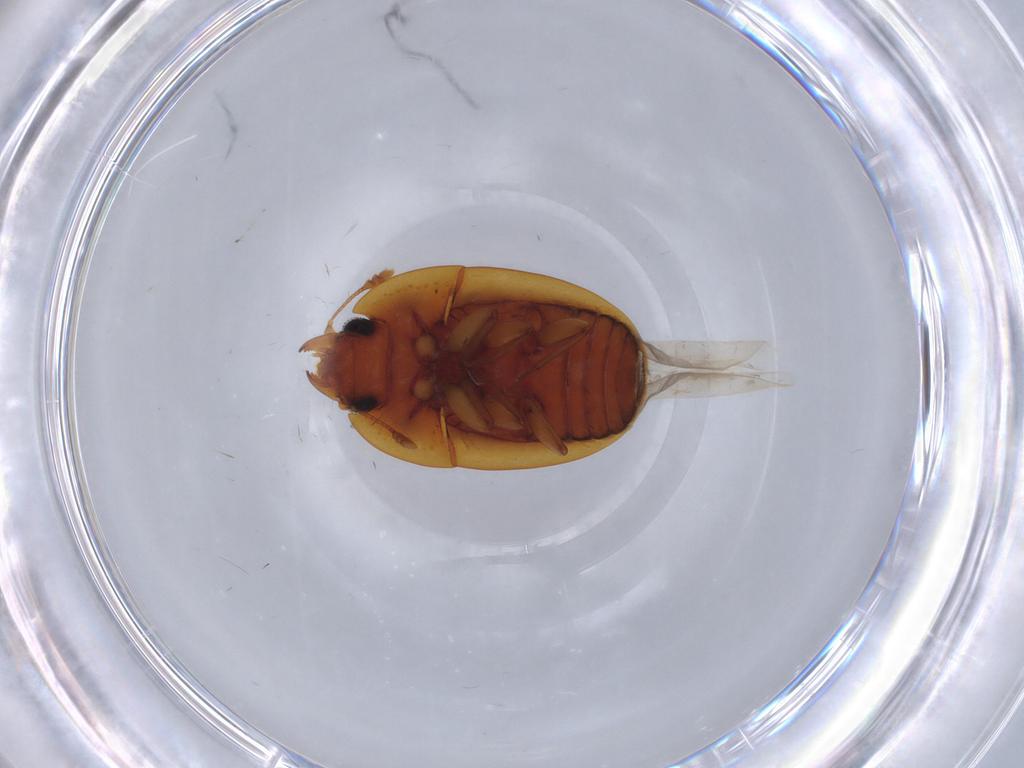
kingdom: Animalia
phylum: Arthropoda
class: Insecta
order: Coleoptera
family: Nitidulidae
